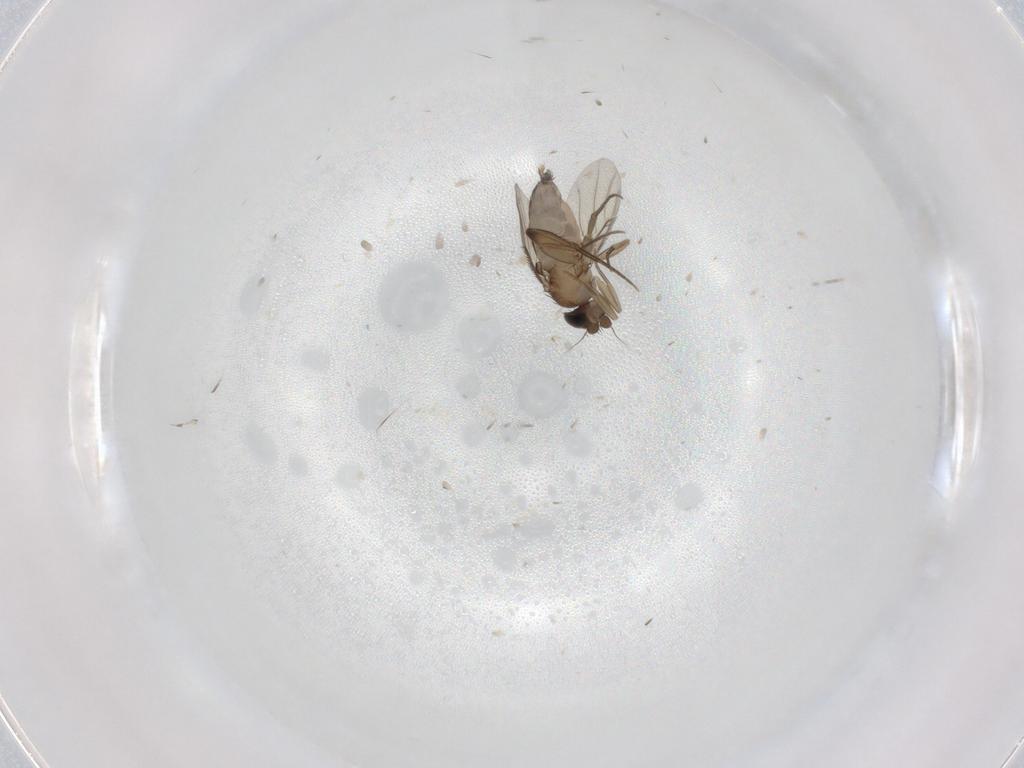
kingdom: Animalia
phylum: Arthropoda
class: Insecta
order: Diptera
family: Phoridae
